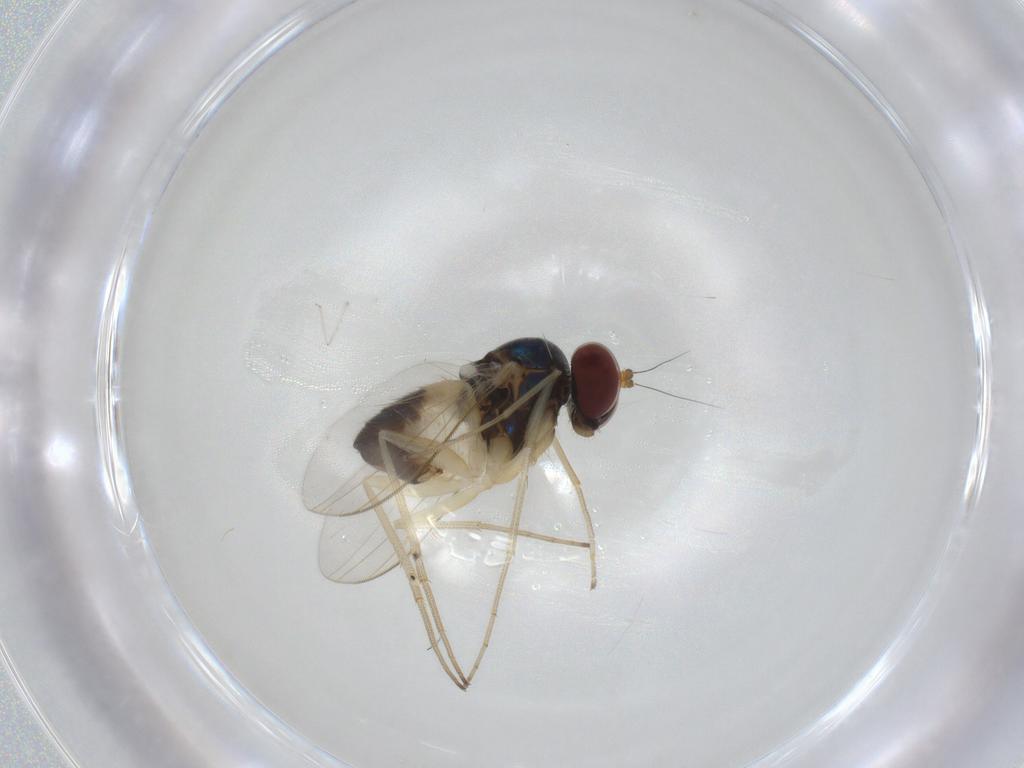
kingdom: Animalia
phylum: Arthropoda
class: Insecta
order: Diptera
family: Dolichopodidae
